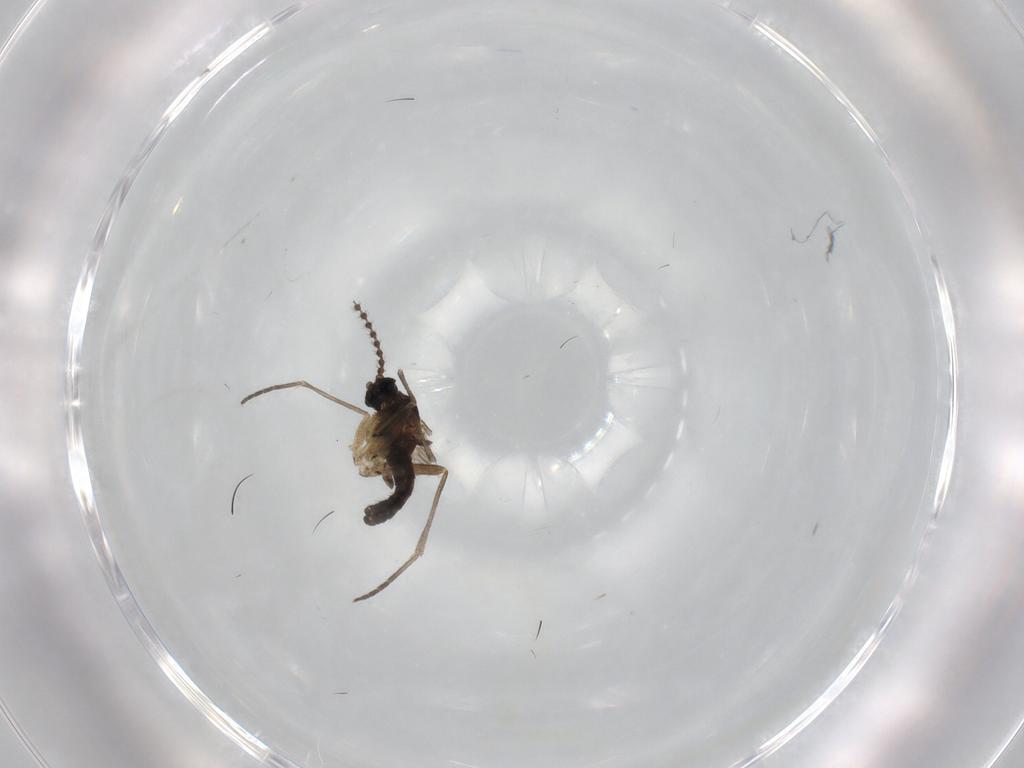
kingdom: Animalia
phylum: Arthropoda
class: Insecta
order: Diptera
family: Sciaridae
